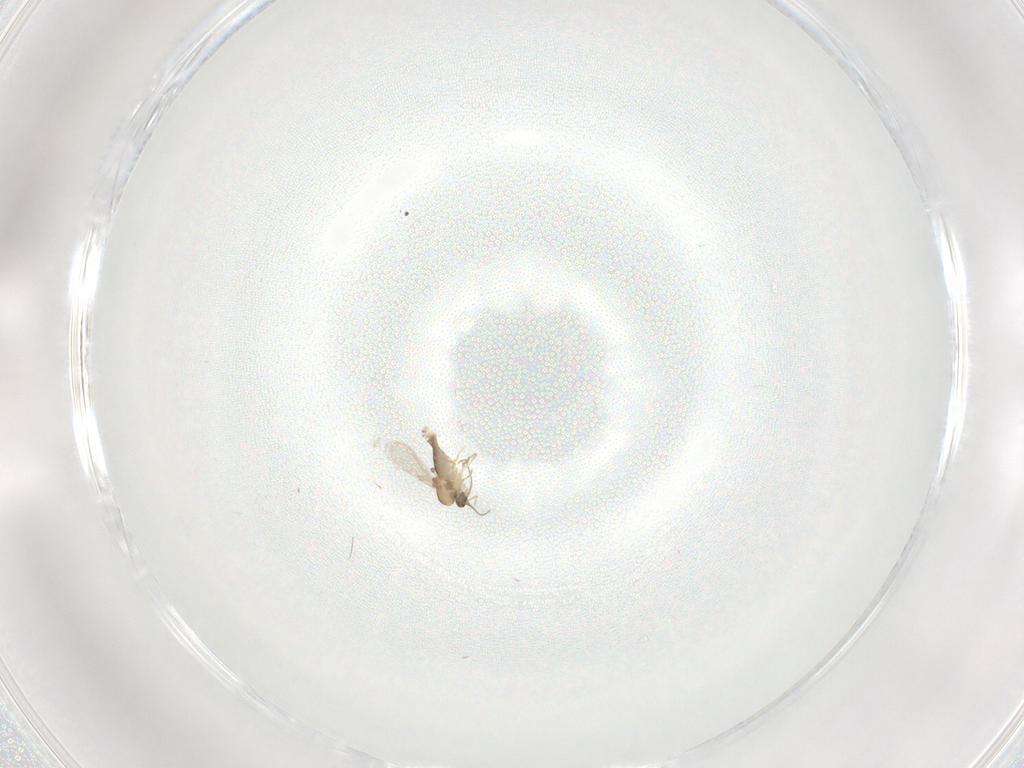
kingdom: Animalia
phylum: Arthropoda
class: Insecta
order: Diptera
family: Ceratopogonidae
